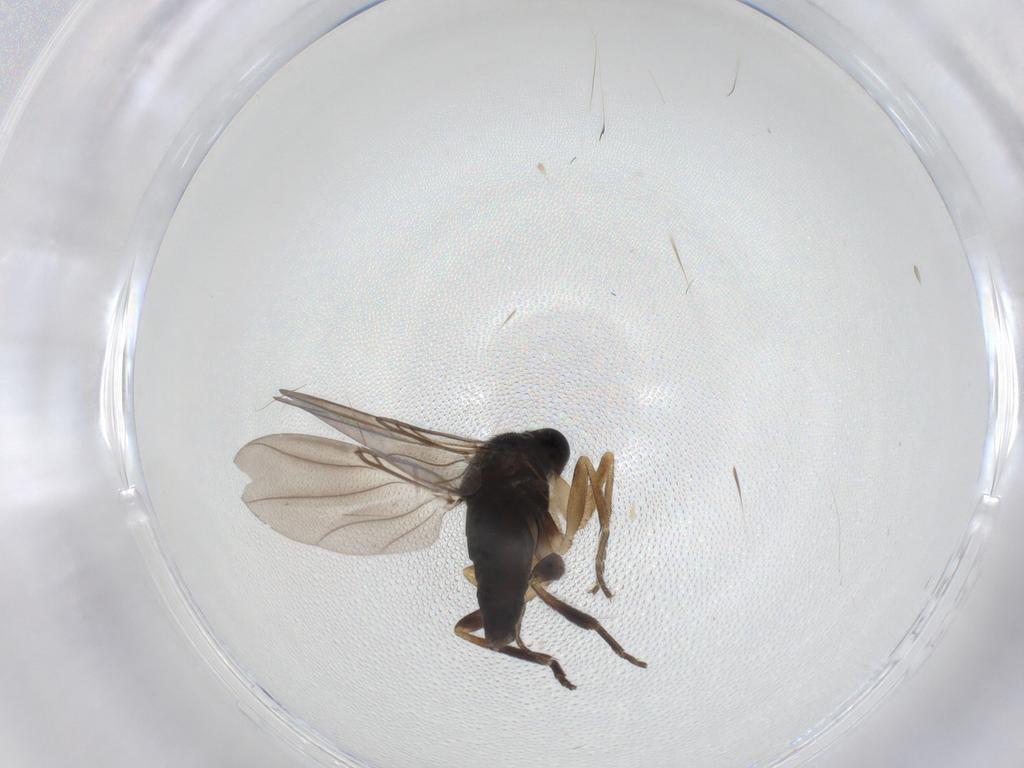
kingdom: Animalia
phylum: Arthropoda
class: Insecta
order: Diptera
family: Phoridae
